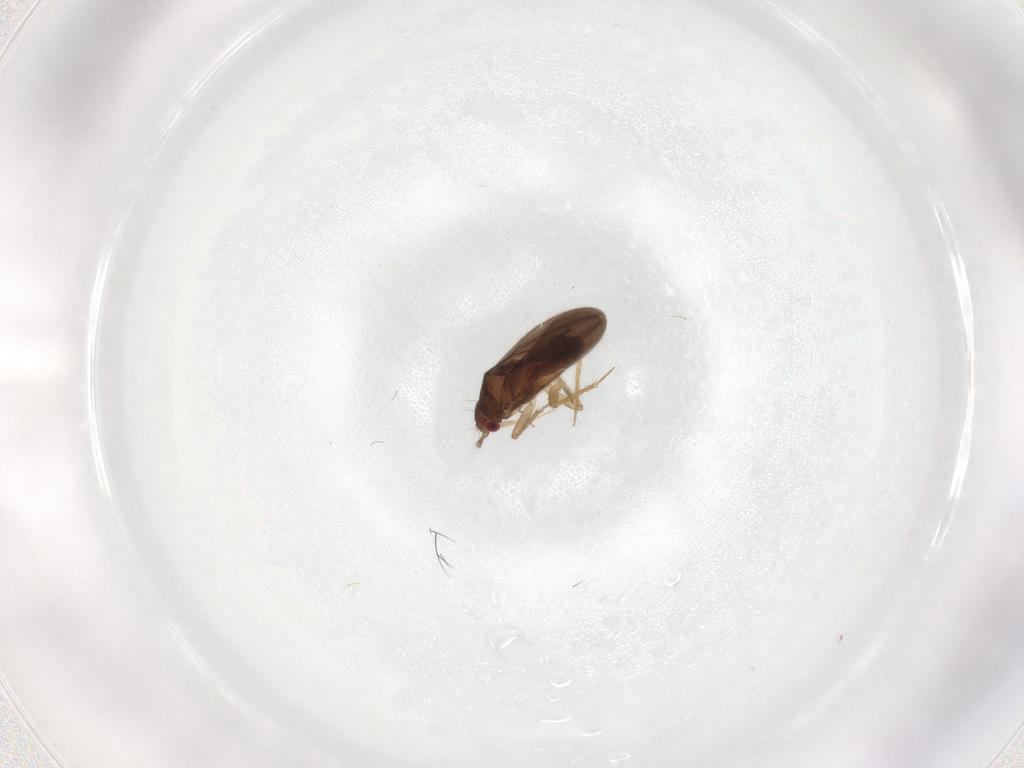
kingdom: Animalia
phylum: Arthropoda
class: Insecta
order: Hemiptera
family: Ceratocombidae
